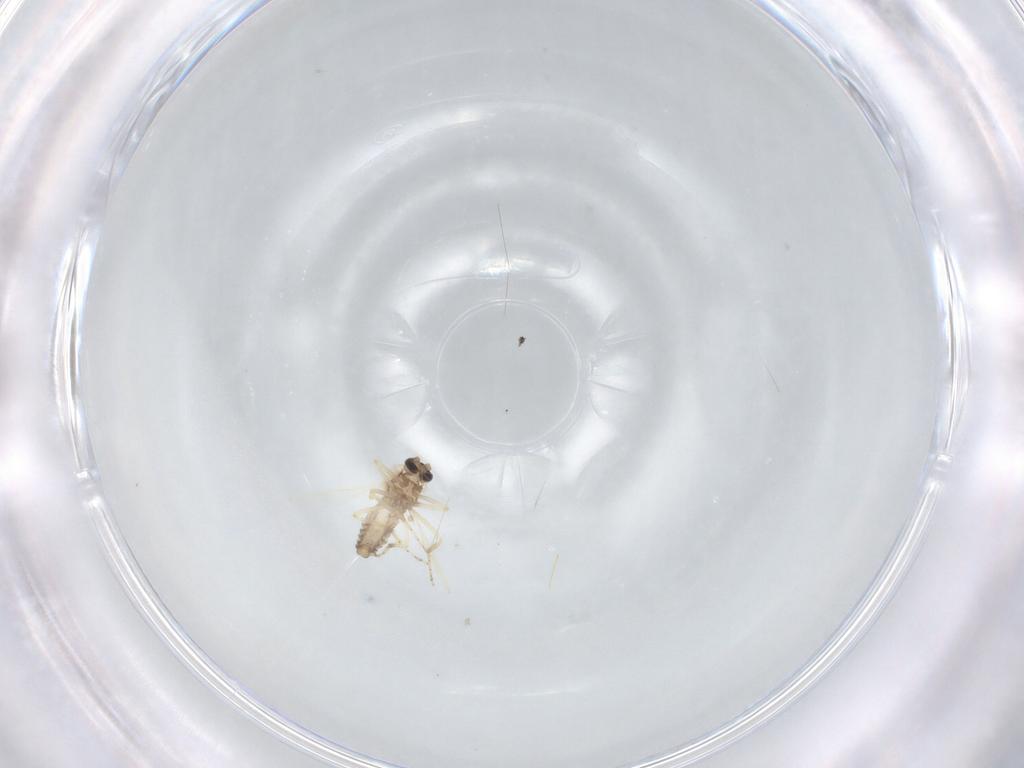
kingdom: Animalia
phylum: Arthropoda
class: Insecta
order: Diptera
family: Ceratopogonidae
